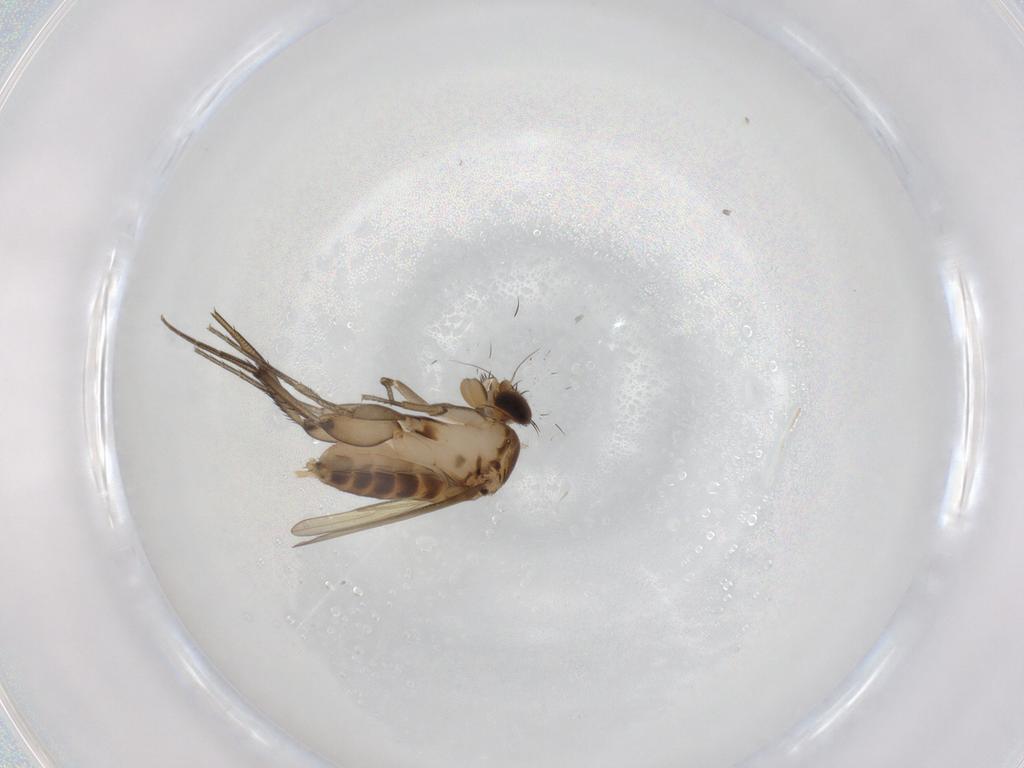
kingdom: Animalia
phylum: Arthropoda
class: Insecta
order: Diptera
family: Phoridae
